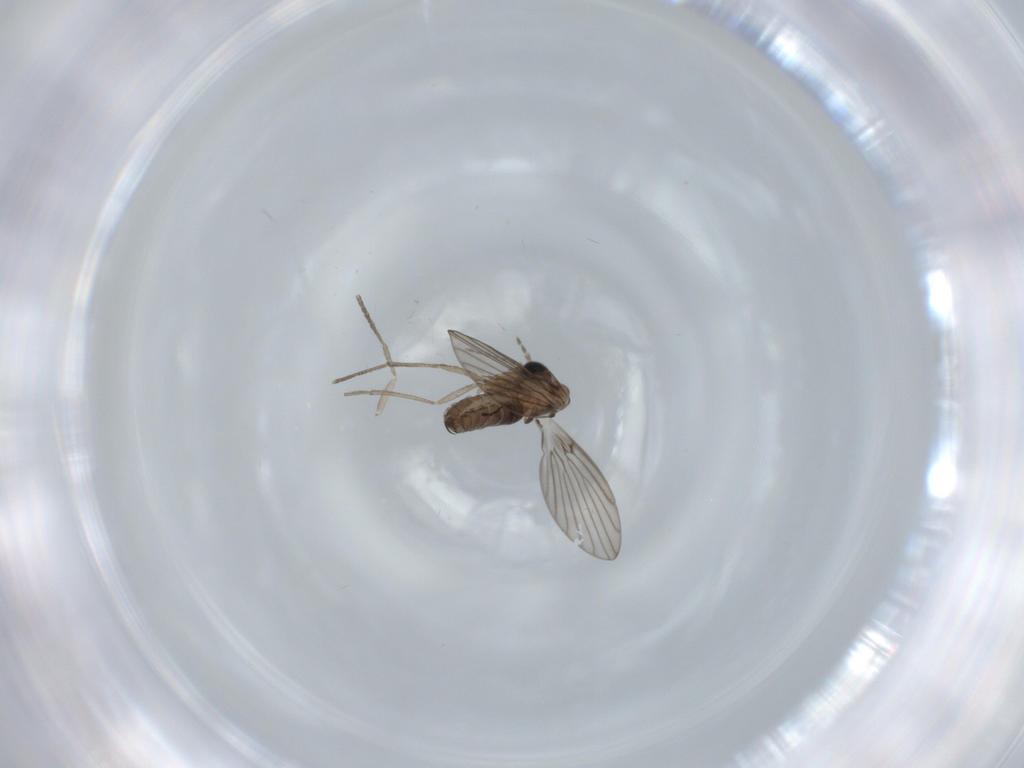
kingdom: Animalia
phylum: Arthropoda
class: Insecta
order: Diptera
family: Psychodidae
